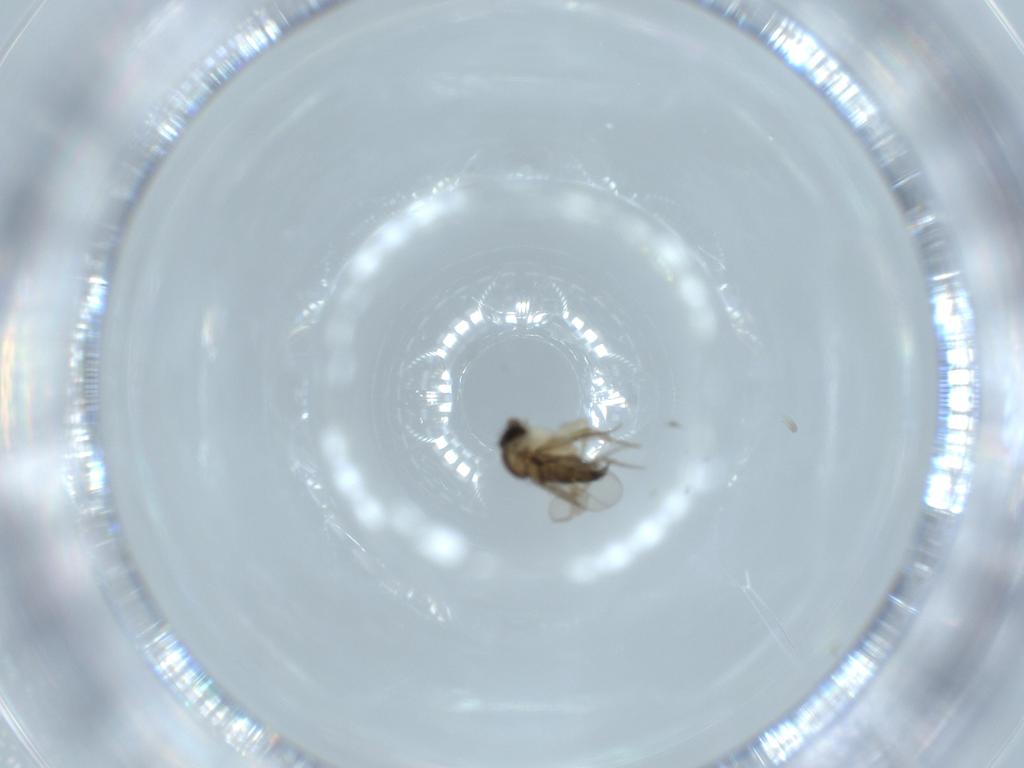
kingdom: Animalia
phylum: Arthropoda
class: Insecta
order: Diptera
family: Phoridae
